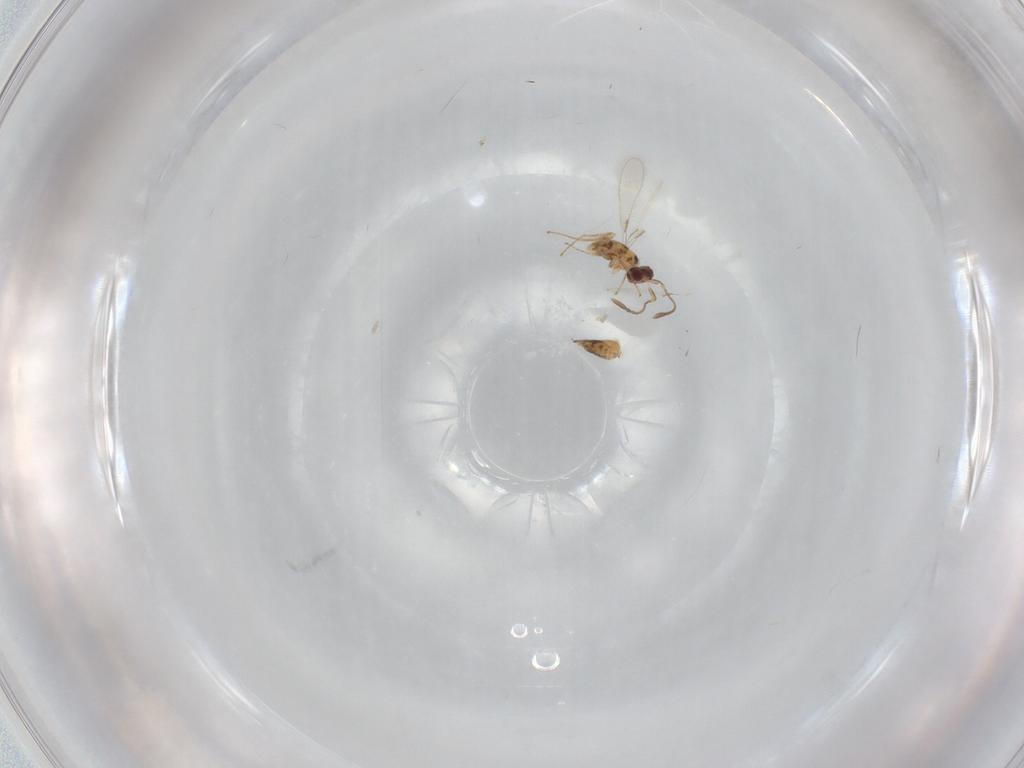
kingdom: Animalia
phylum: Arthropoda
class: Insecta
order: Hymenoptera
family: Mymaridae
